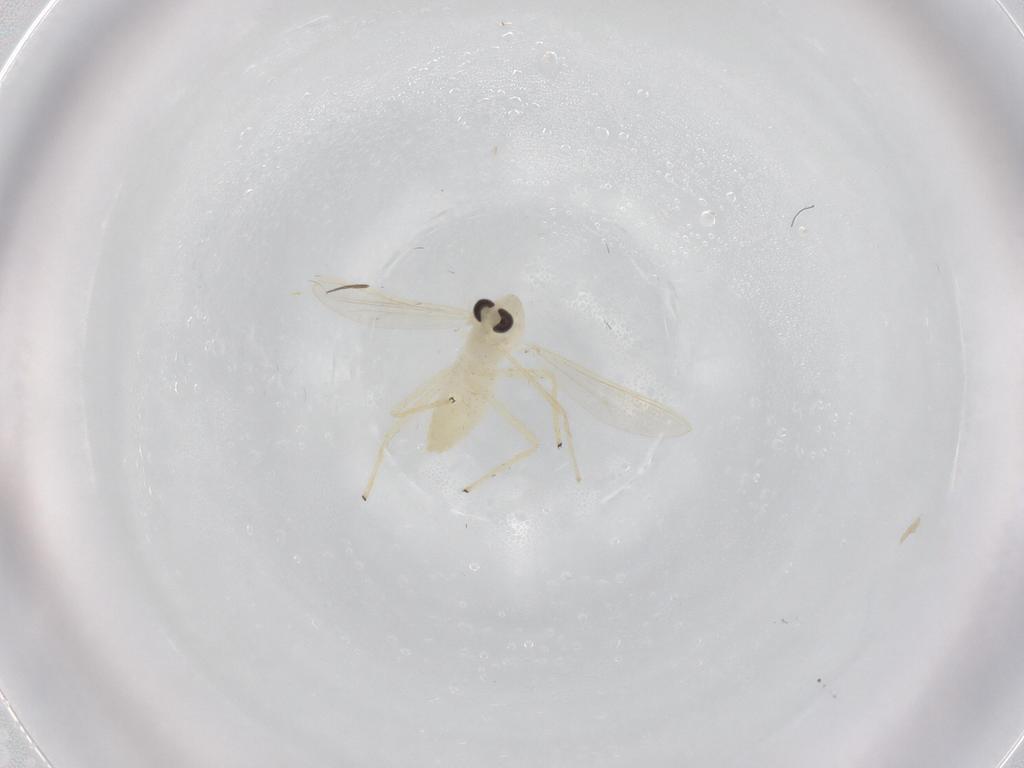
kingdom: Animalia
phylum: Arthropoda
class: Insecta
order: Diptera
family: Chironomidae
